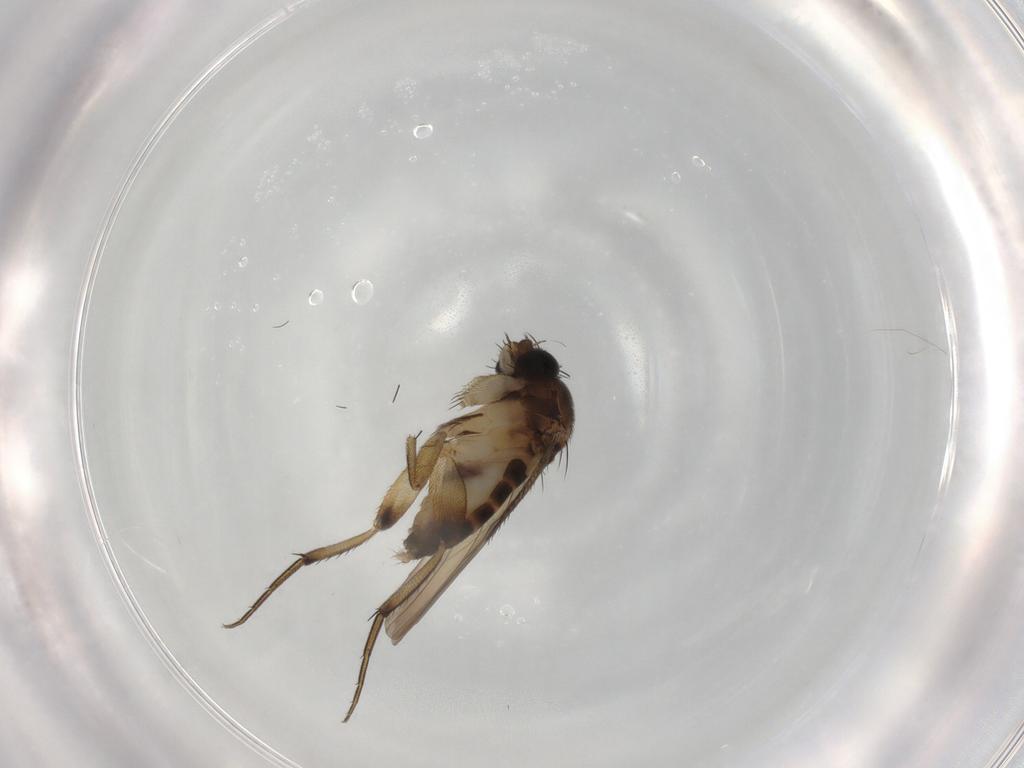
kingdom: Animalia
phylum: Arthropoda
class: Insecta
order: Diptera
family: Phoridae
